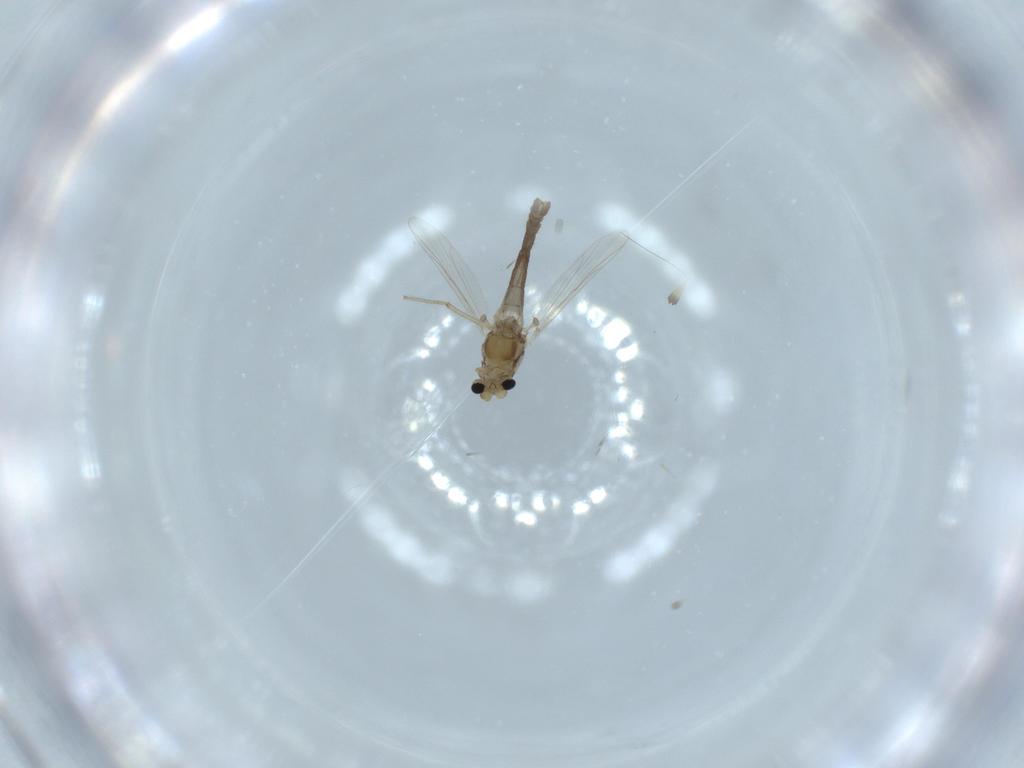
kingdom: Animalia
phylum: Arthropoda
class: Insecta
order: Diptera
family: Chironomidae
